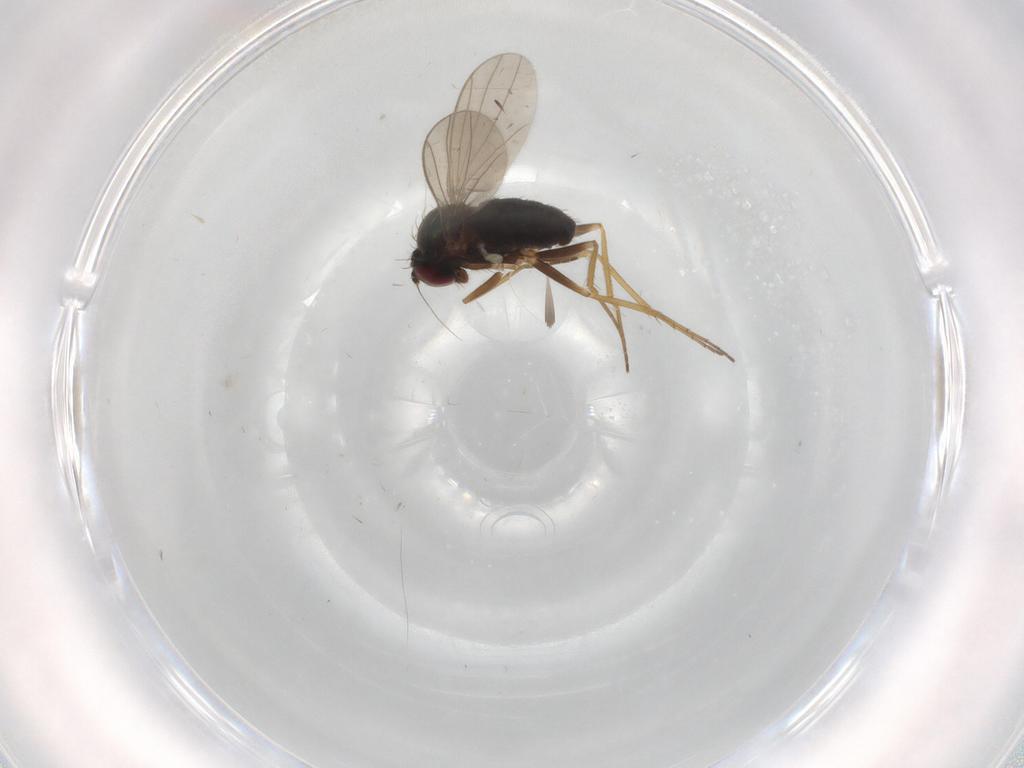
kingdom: Animalia
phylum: Arthropoda
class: Insecta
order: Diptera
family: Dolichopodidae
